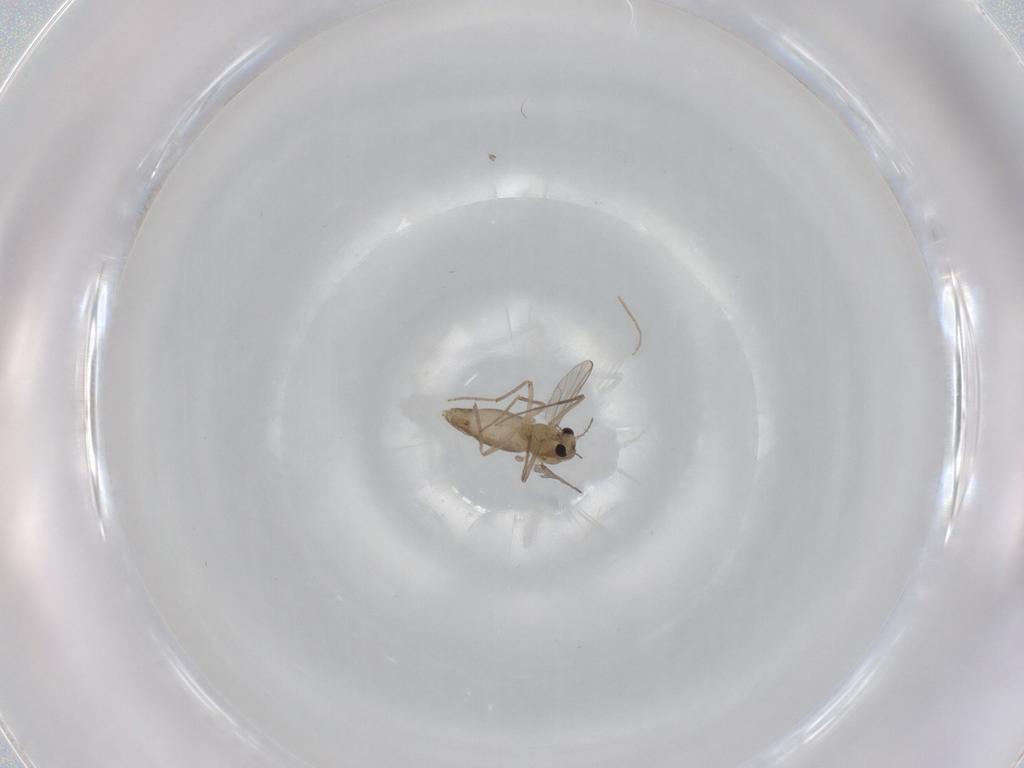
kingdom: Animalia
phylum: Arthropoda
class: Insecta
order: Diptera
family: Chironomidae
